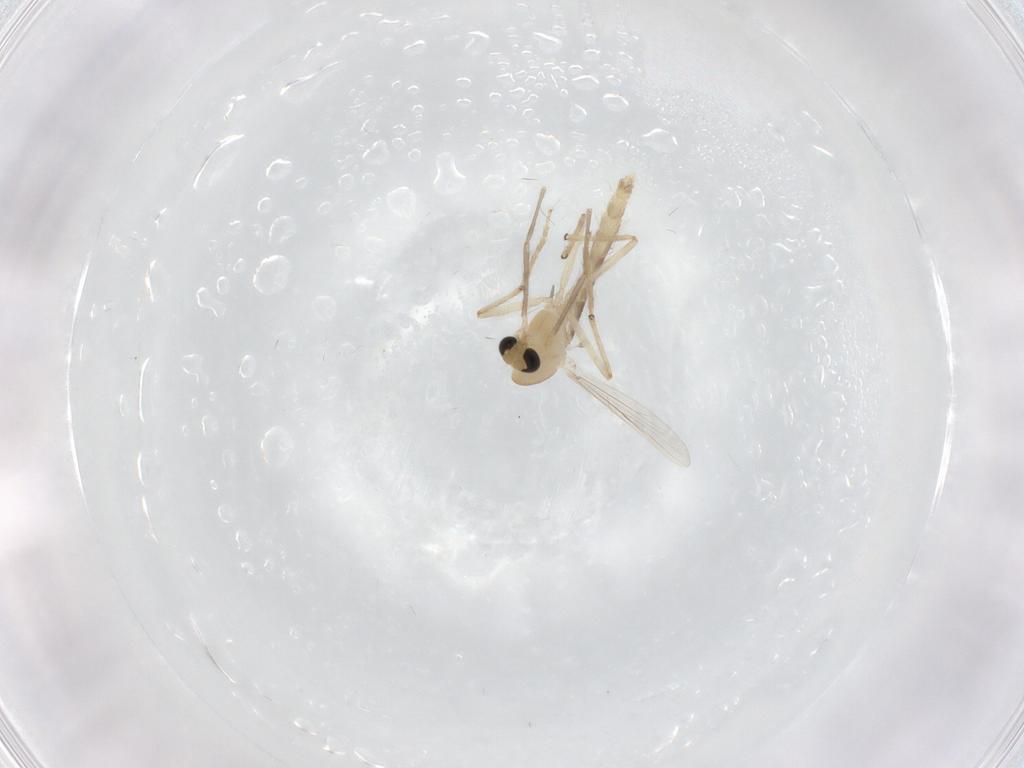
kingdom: Animalia
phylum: Arthropoda
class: Insecta
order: Diptera
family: Chironomidae
